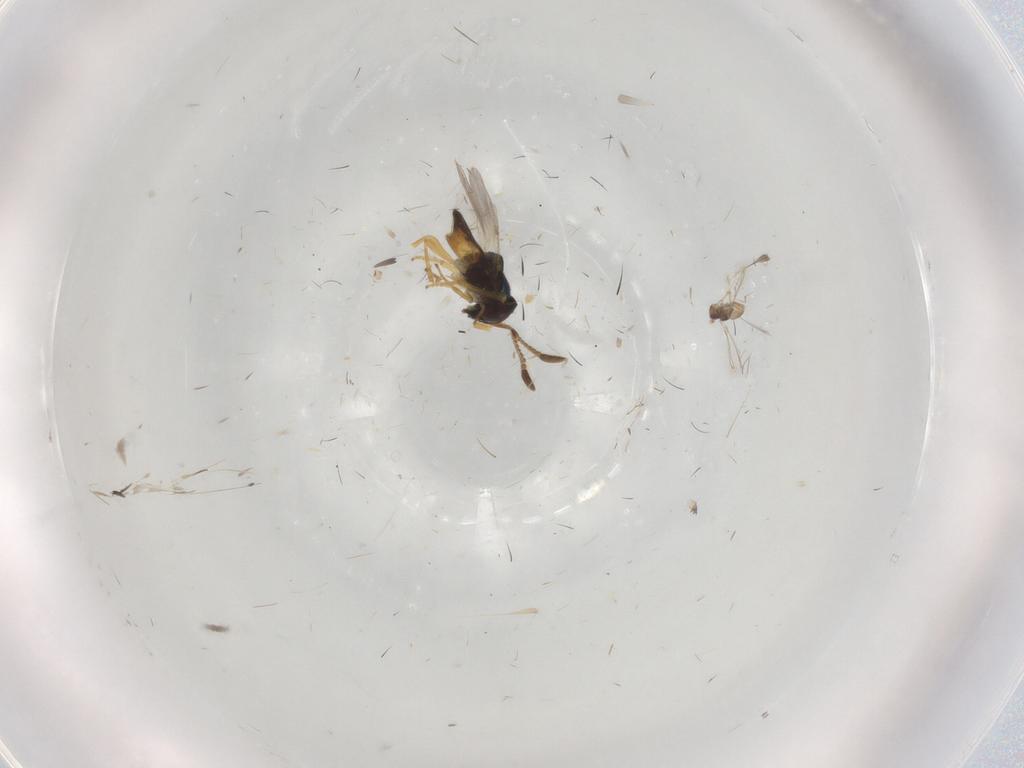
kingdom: Animalia
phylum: Arthropoda
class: Insecta
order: Hymenoptera
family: Encyrtidae
